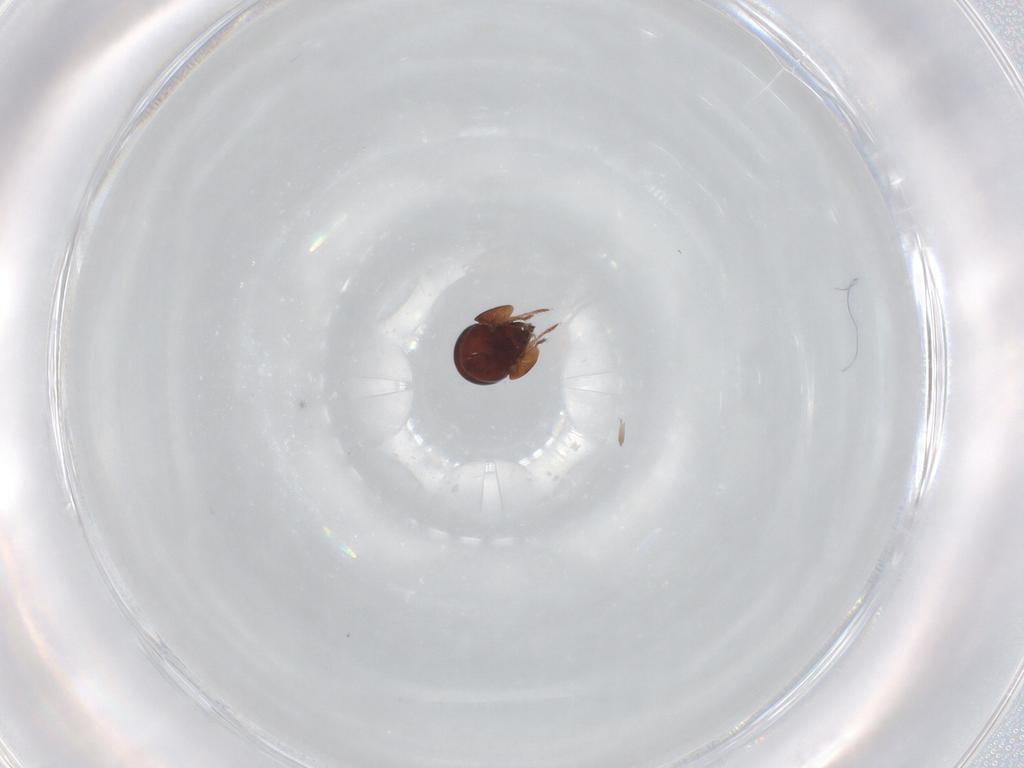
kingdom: Animalia
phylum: Arthropoda
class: Arachnida
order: Sarcoptiformes
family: Galumnidae
